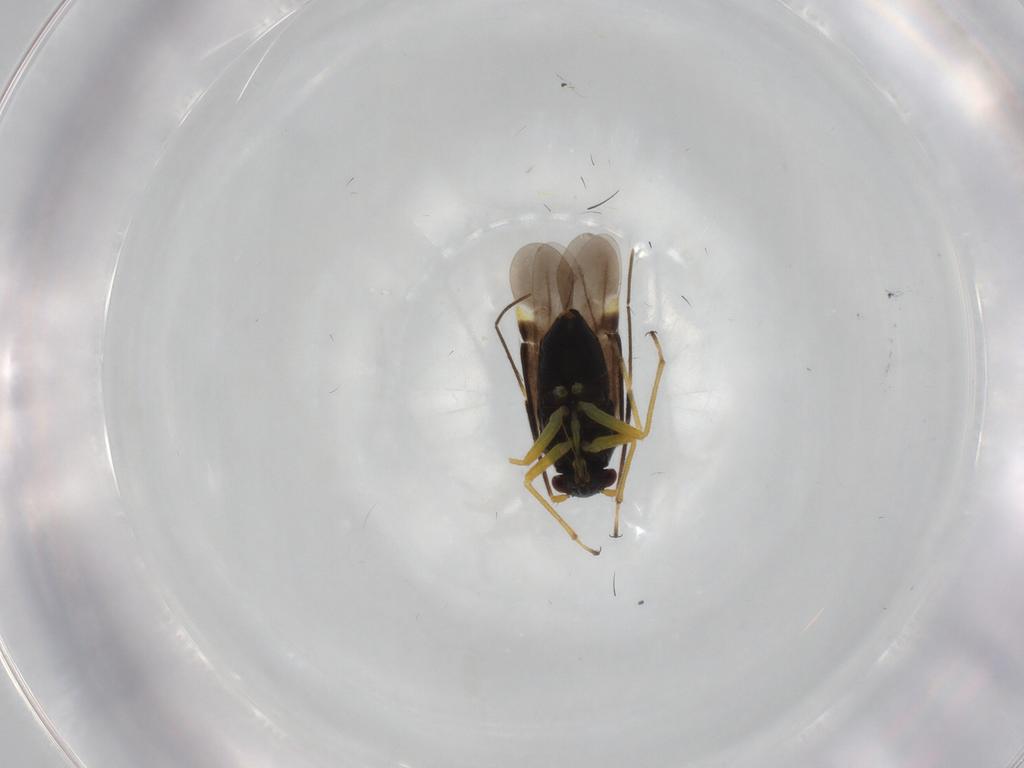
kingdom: Animalia
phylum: Arthropoda
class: Insecta
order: Hemiptera
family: Miridae
